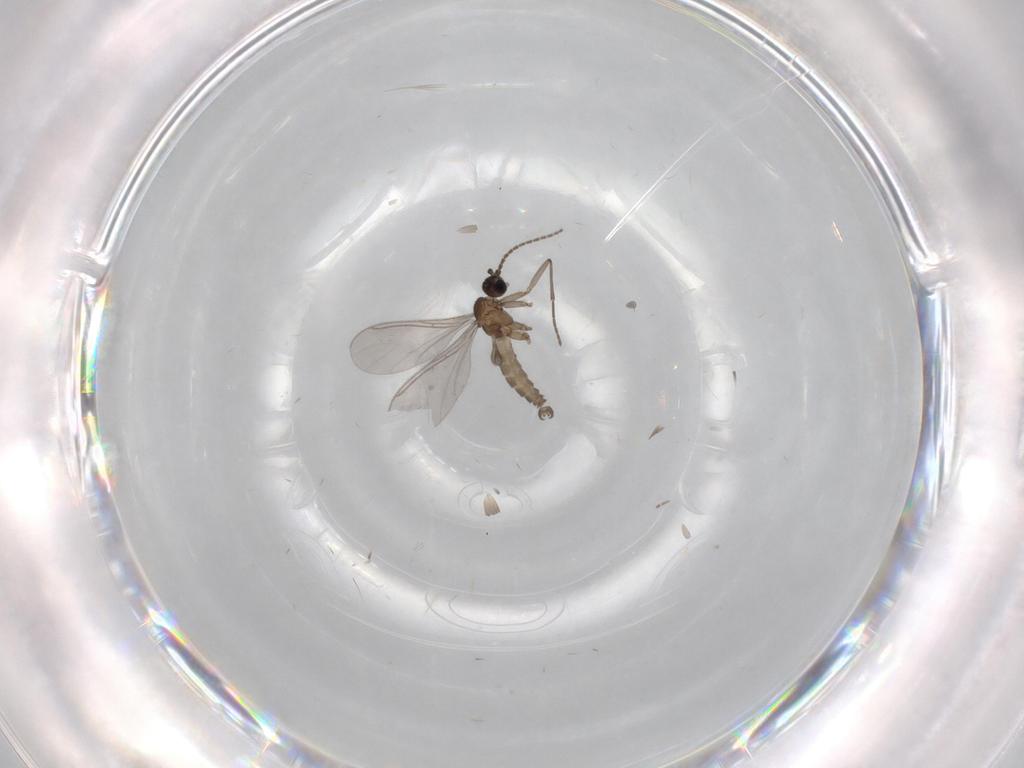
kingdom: Animalia
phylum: Arthropoda
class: Insecta
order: Diptera
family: Sciaridae
